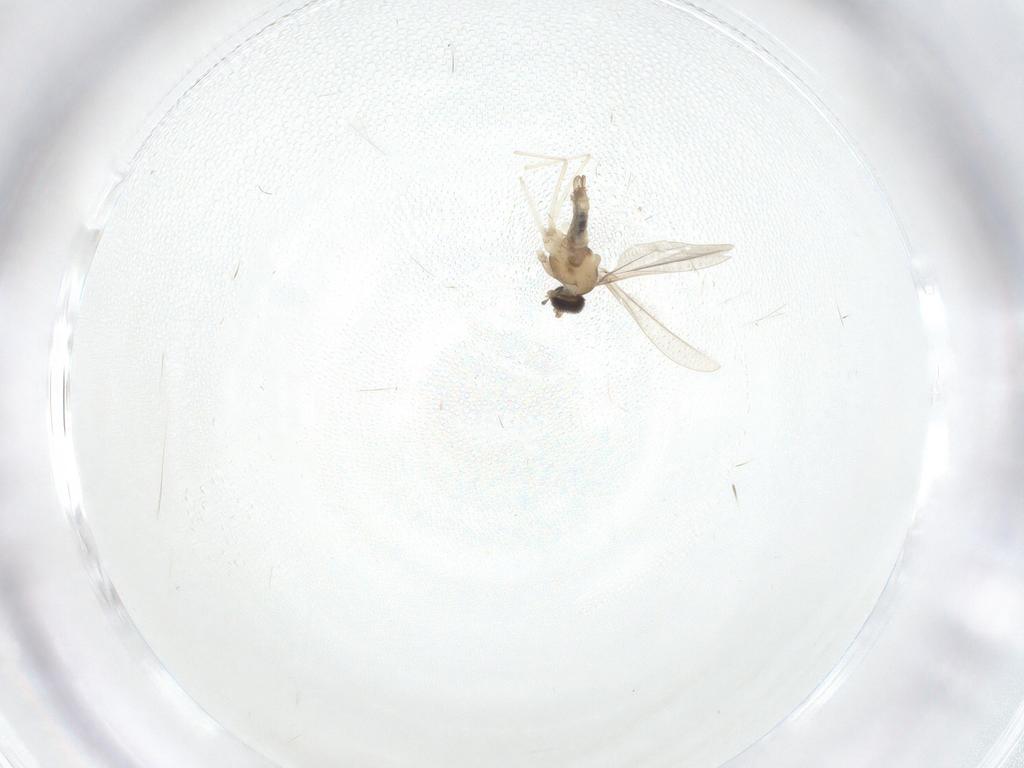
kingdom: Animalia
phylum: Arthropoda
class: Insecta
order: Diptera
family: Cecidomyiidae
